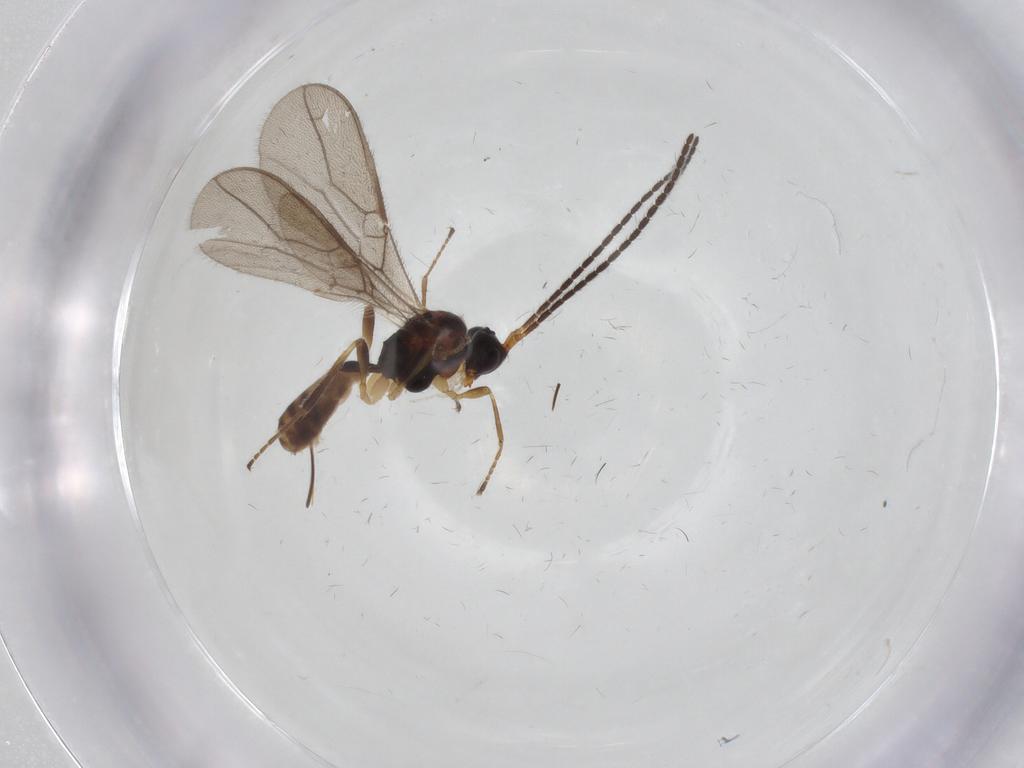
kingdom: Animalia
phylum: Arthropoda
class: Insecta
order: Hymenoptera
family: Braconidae
